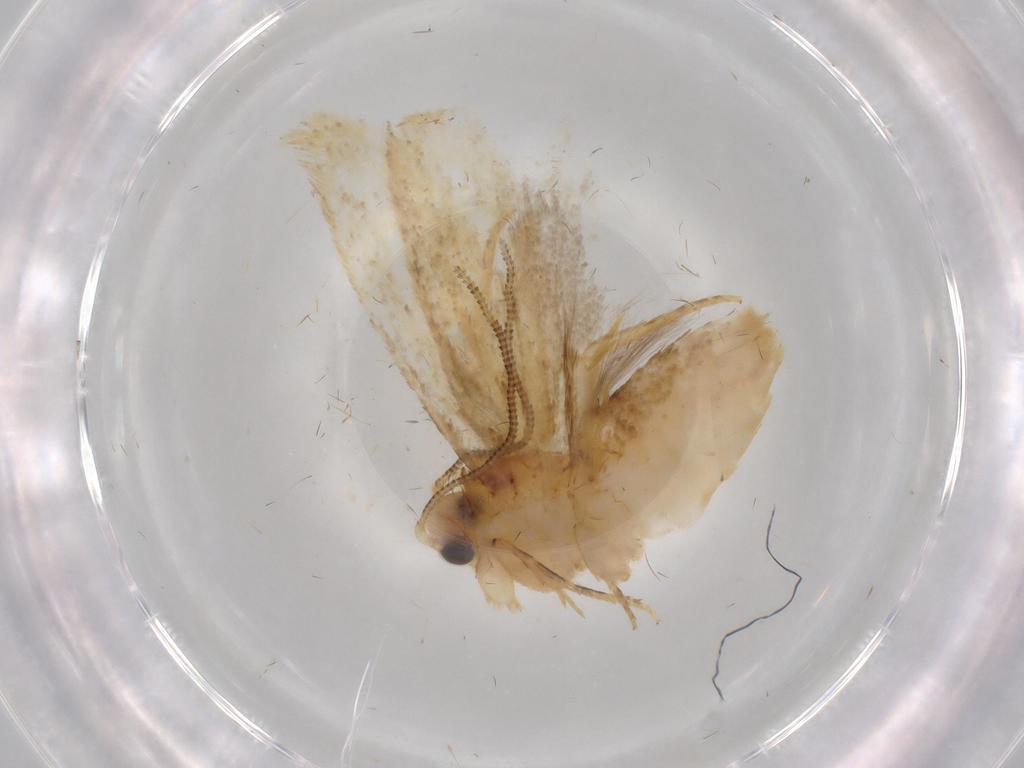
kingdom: Animalia
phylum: Arthropoda
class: Insecta
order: Lepidoptera
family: Tineidae
